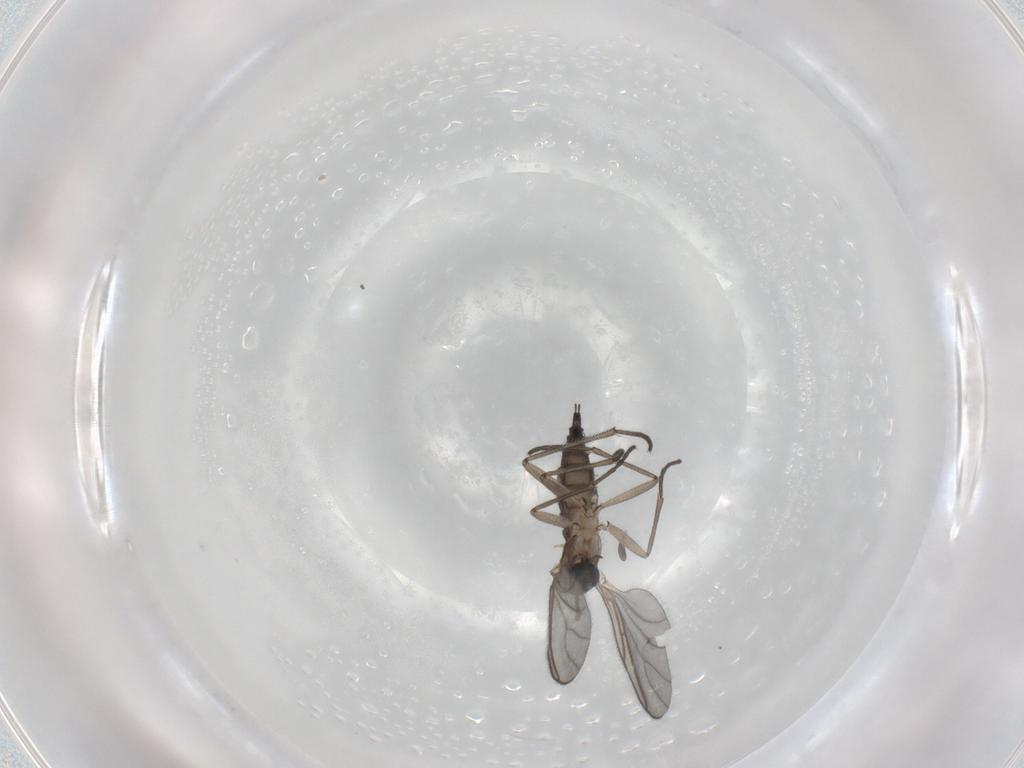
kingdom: Animalia
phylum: Arthropoda
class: Insecta
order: Diptera
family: Sciaridae
